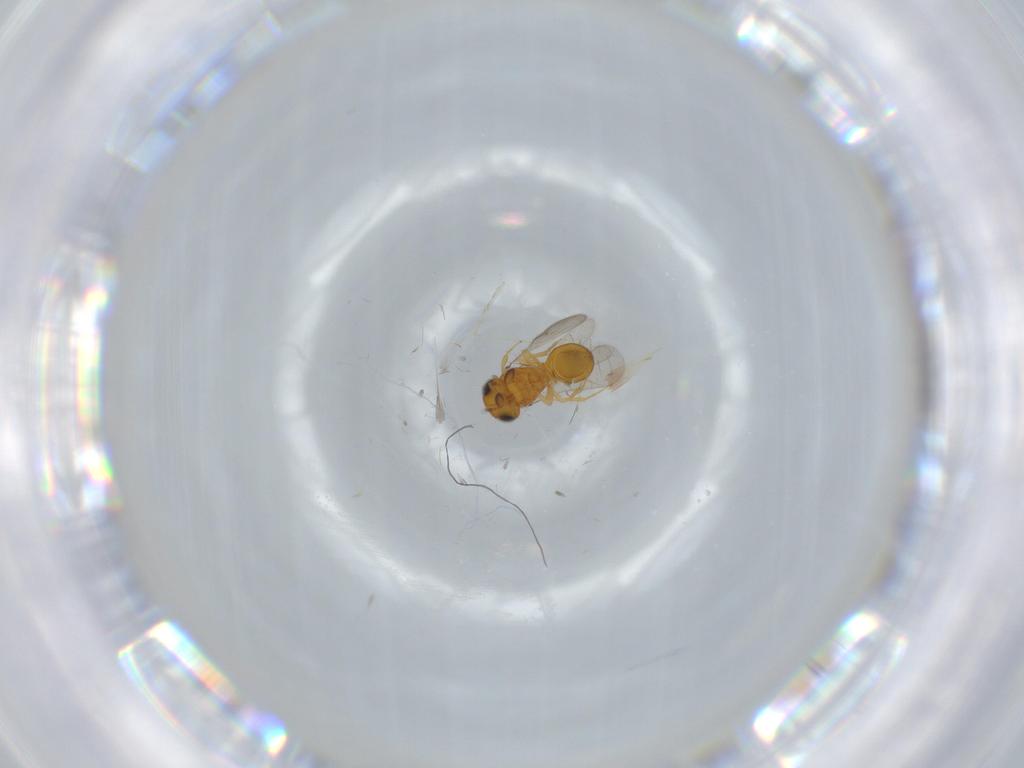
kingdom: Animalia
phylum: Arthropoda
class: Insecta
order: Hymenoptera
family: Scelionidae
